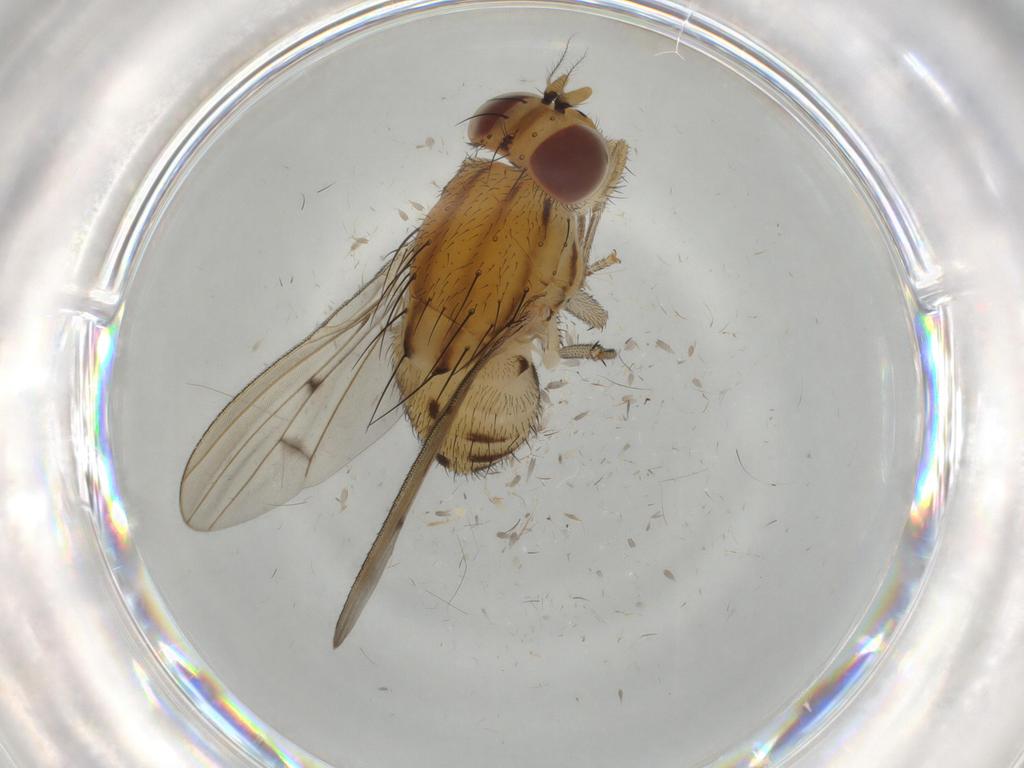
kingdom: Animalia
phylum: Arthropoda
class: Insecta
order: Diptera
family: Lauxaniidae
